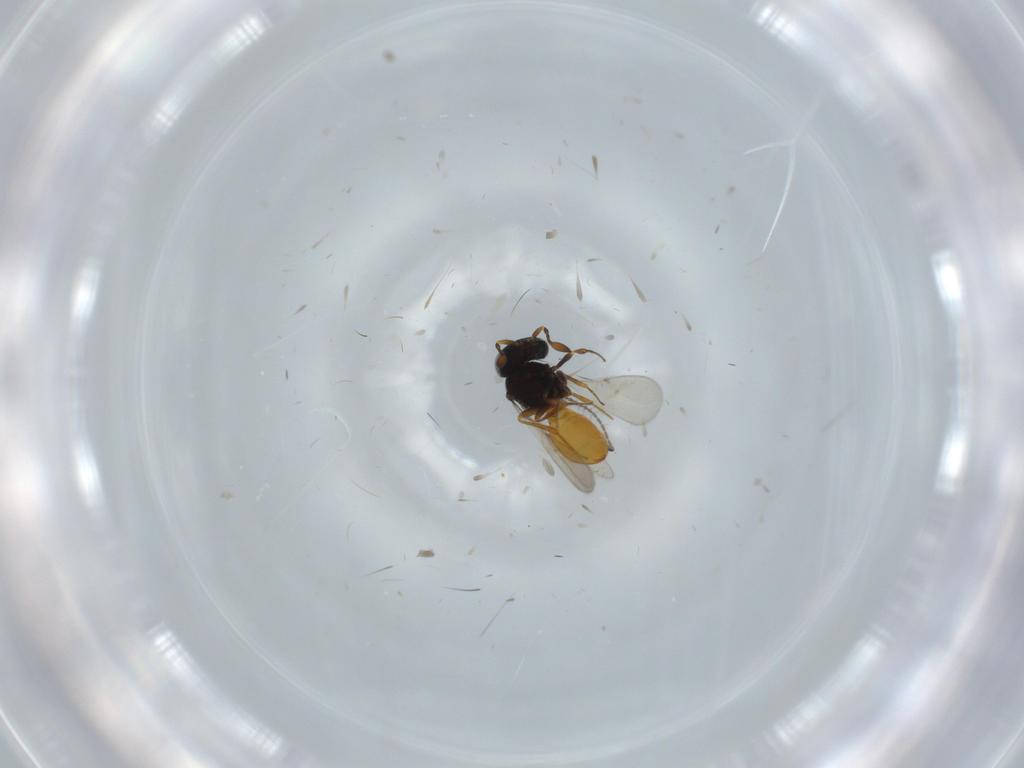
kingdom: Animalia
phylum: Arthropoda
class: Insecta
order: Hymenoptera
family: Scelionidae
